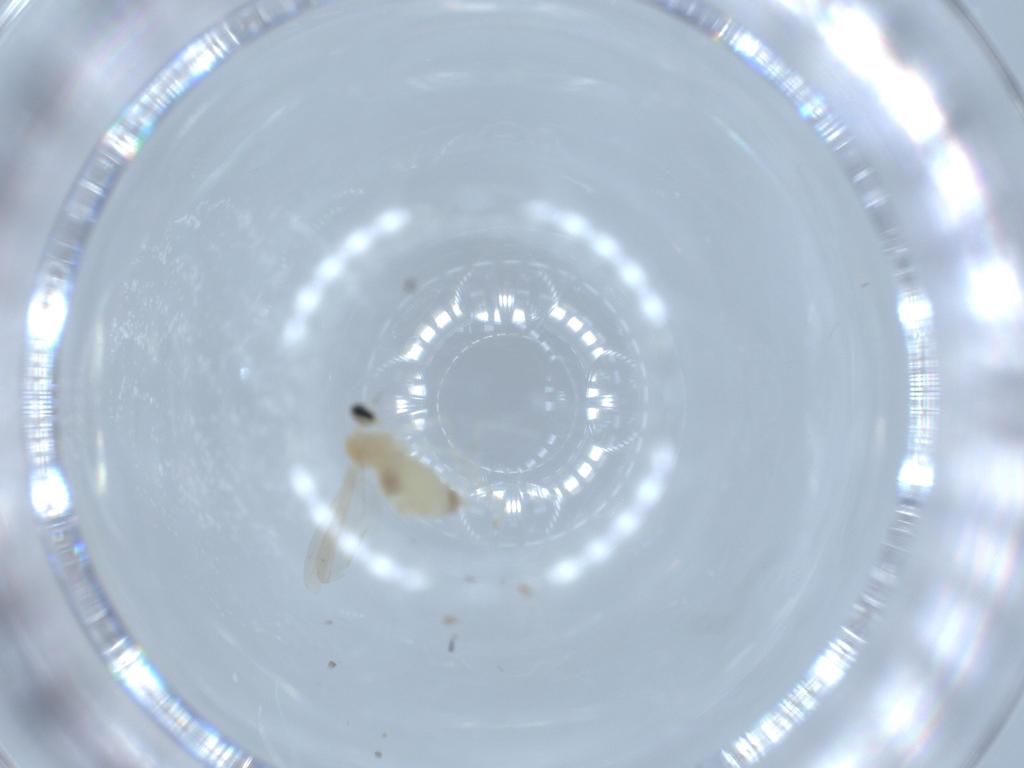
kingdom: Animalia
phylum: Arthropoda
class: Insecta
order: Diptera
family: Cecidomyiidae
